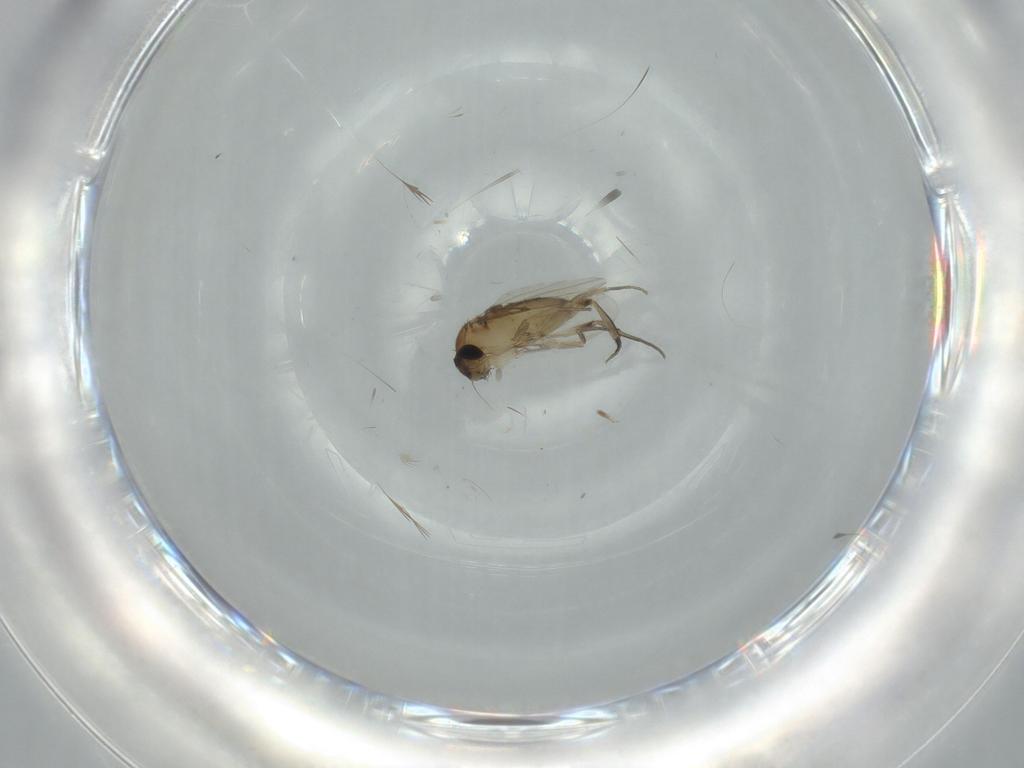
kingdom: Animalia
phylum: Arthropoda
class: Insecta
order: Diptera
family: Phoridae
